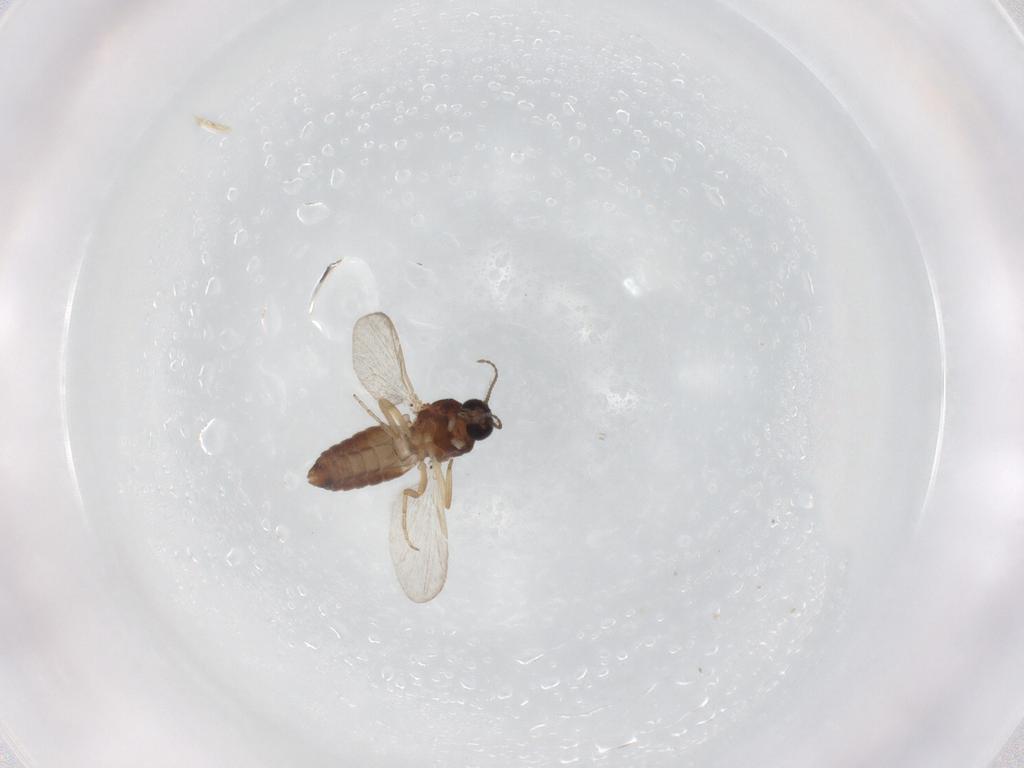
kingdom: Animalia
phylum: Arthropoda
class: Insecta
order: Diptera
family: Ceratopogonidae
